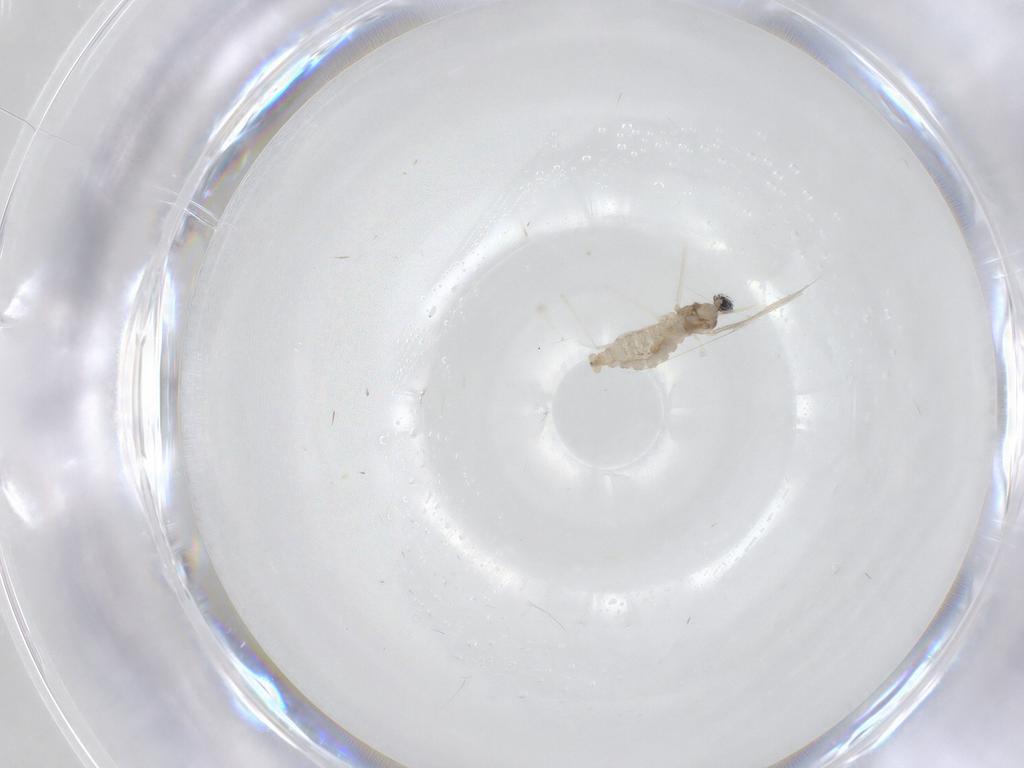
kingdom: Animalia
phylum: Arthropoda
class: Insecta
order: Diptera
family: Cecidomyiidae
